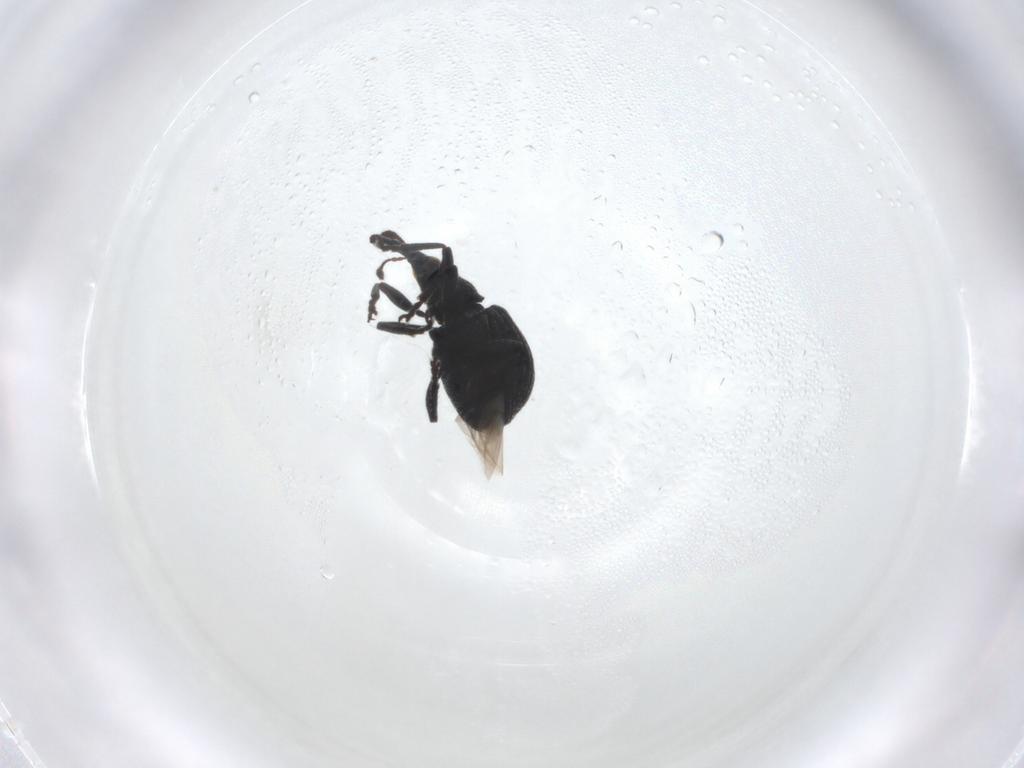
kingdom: Animalia
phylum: Arthropoda
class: Insecta
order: Coleoptera
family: Brentidae
